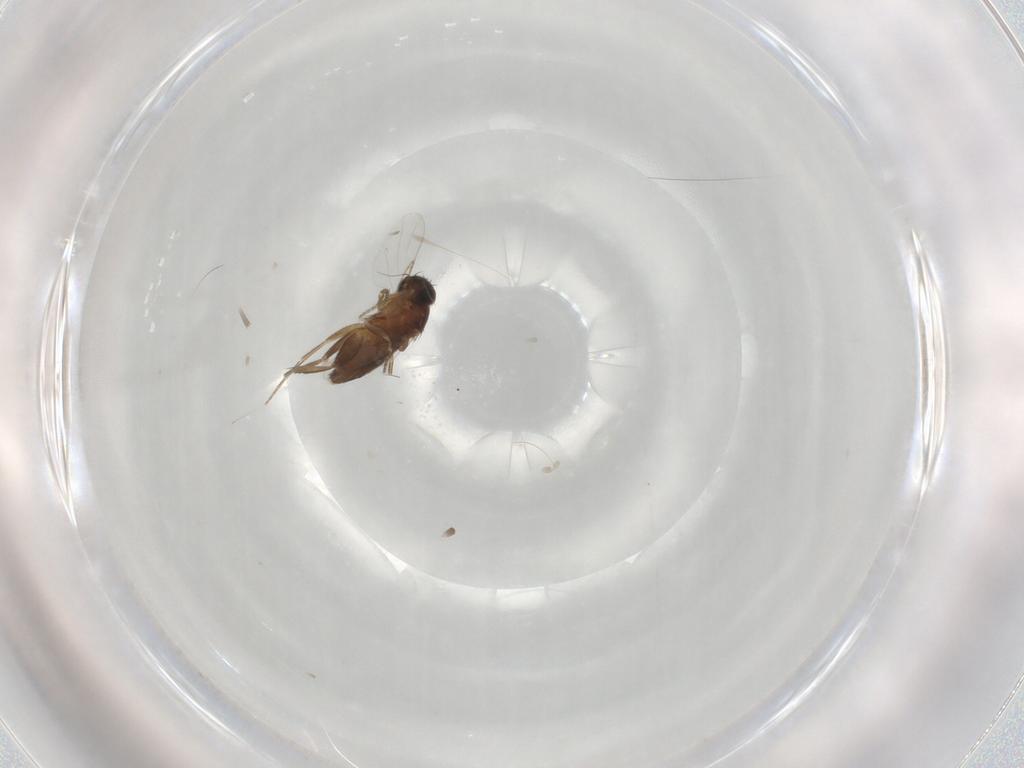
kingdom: Animalia
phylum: Arthropoda
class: Insecta
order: Diptera
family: Phoridae
